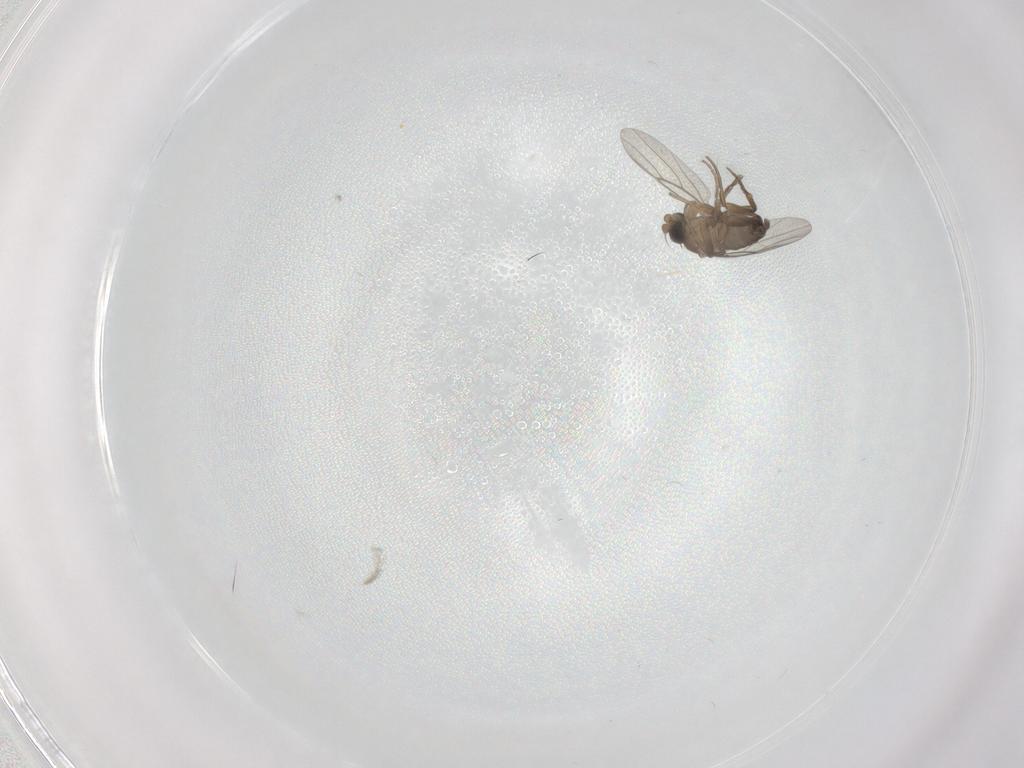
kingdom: Animalia
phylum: Arthropoda
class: Insecta
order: Diptera
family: Phoridae
